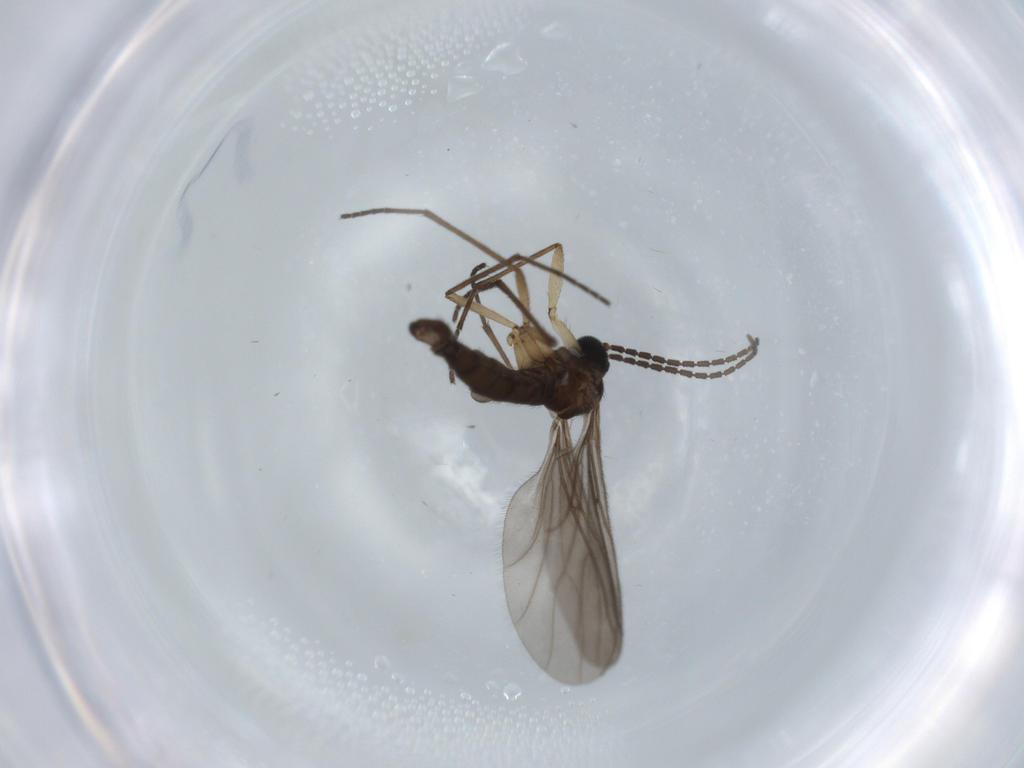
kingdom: Animalia
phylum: Arthropoda
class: Insecta
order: Diptera
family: Sciaridae
